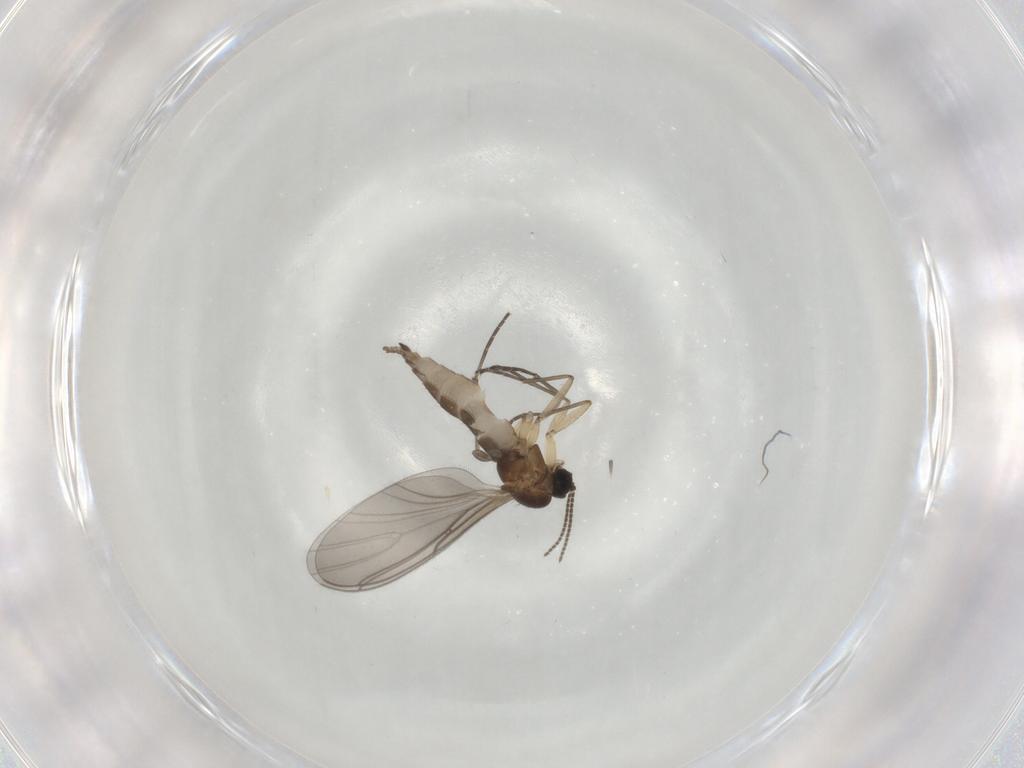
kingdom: Animalia
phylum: Arthropoda
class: Insecta
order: Diptera
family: Sciaridae
